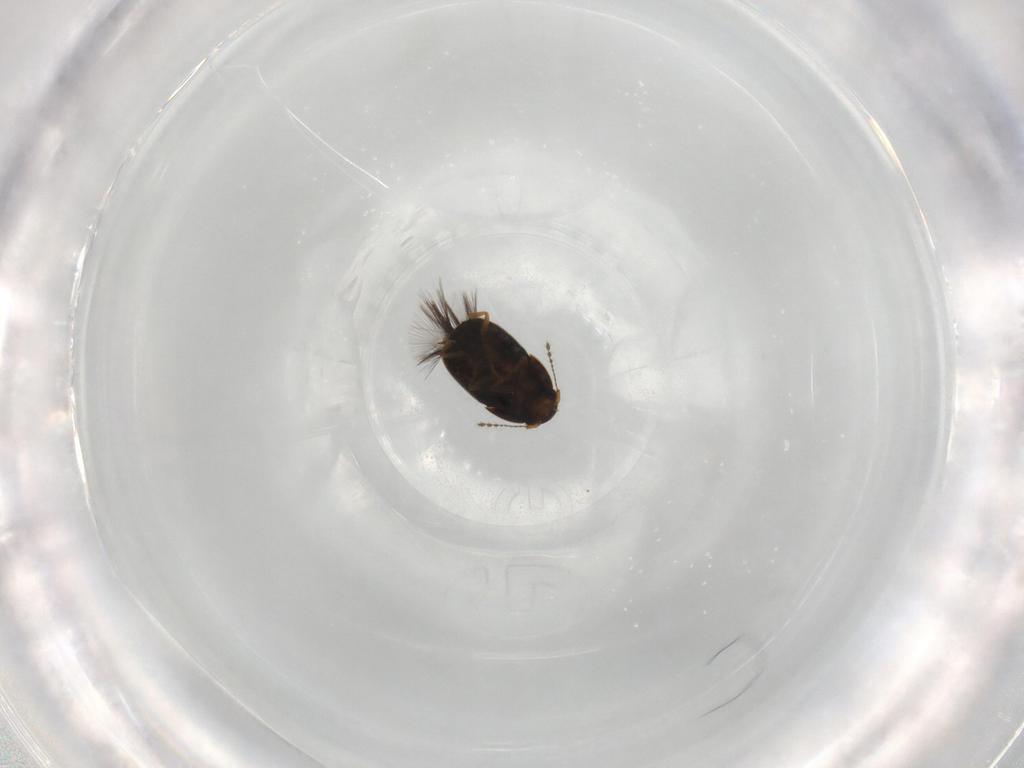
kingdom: Animalia
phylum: Arthropoda
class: Insecta
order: Coleoptera
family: Ptiliidae
